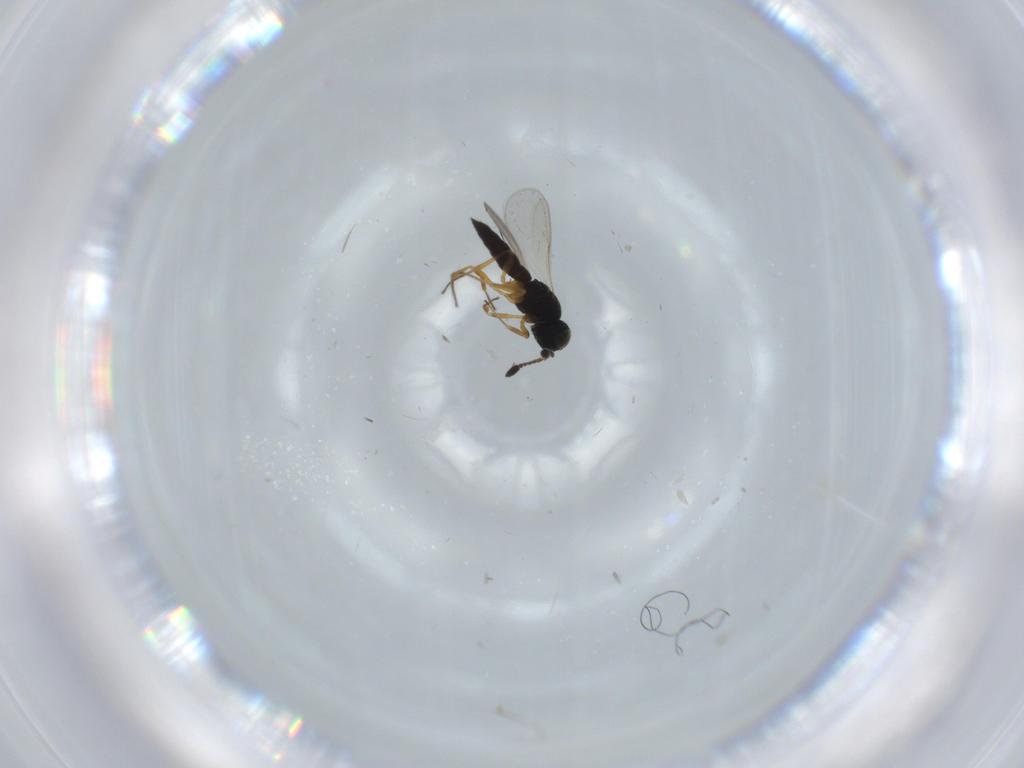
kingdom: Animalia
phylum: Arthropoda
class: Insecta
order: Hymenoptera
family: Scelionidae
